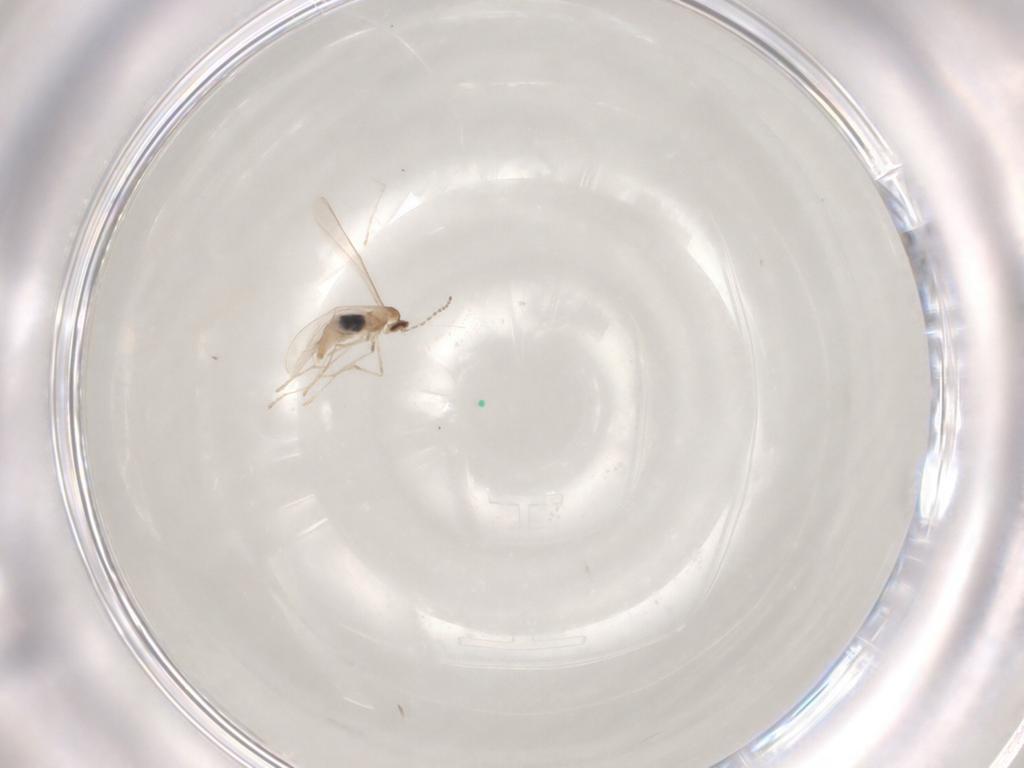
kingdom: Animalia
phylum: Arthropoda
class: Insecta
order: Diptera
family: Cecidomyiidae
